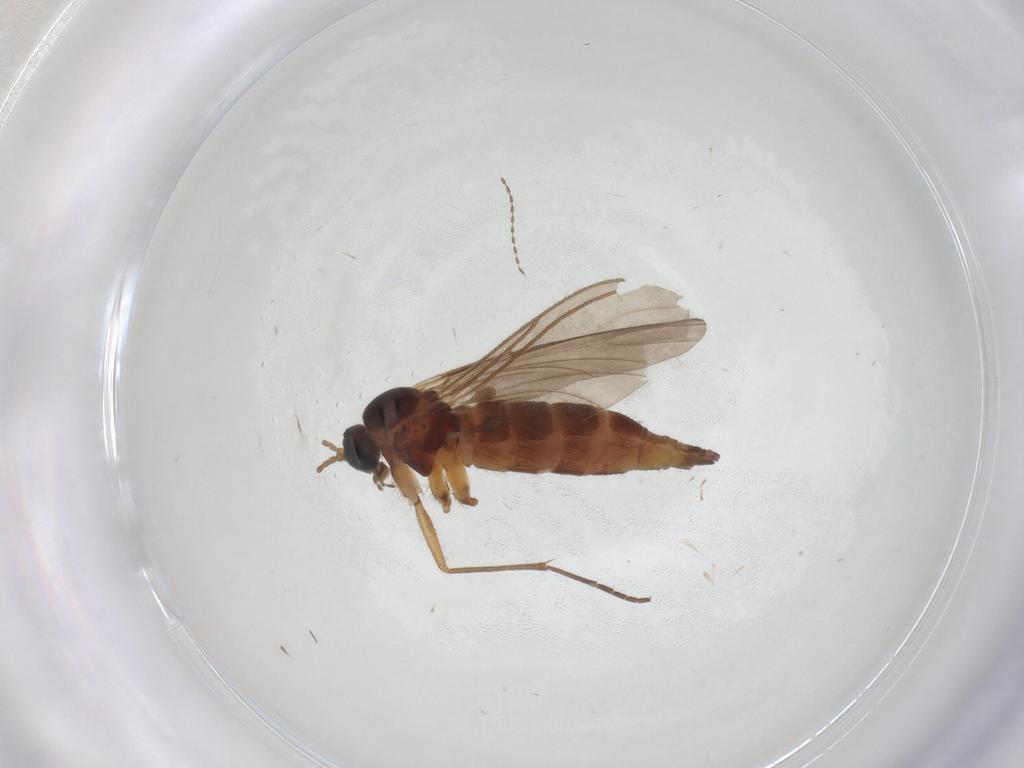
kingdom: Animalia
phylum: Arthropoda
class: Insecta
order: Diptera
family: Sciaridae
